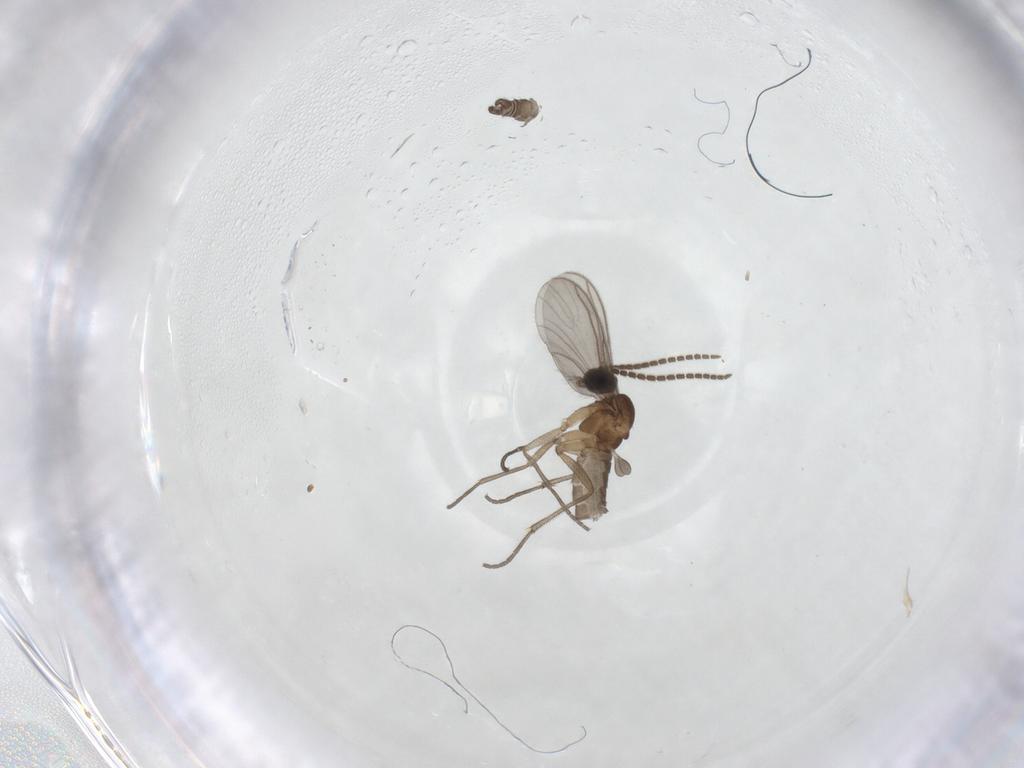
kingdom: Animalia
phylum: Arthropoda
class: Insecta
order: Diptera
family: Sciaridae
